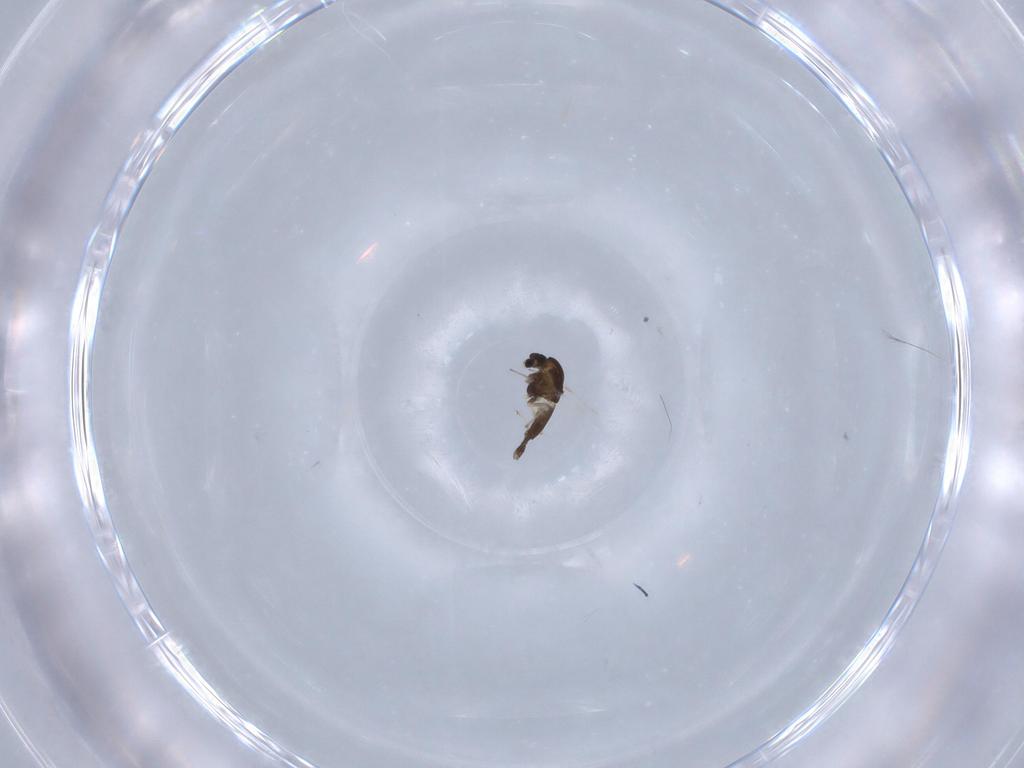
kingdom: Animalia
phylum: Arthropoda
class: Insecta
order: Diptera
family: Chironomidae
